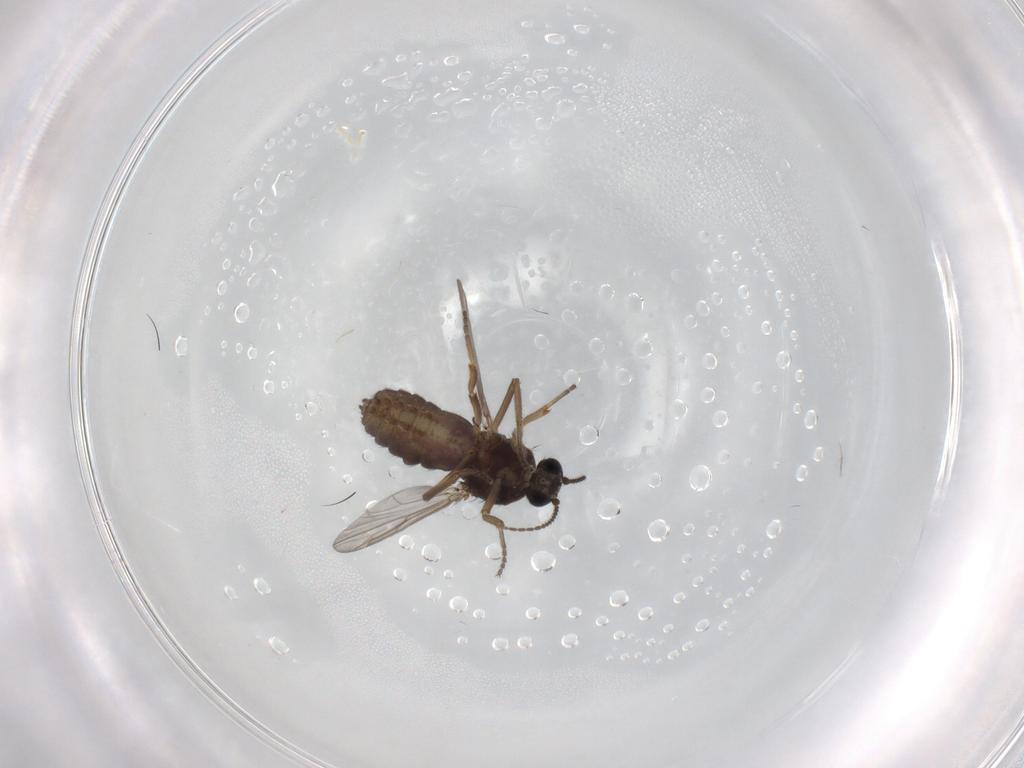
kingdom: Animalia
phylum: Arthropoda
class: Insecta
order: Diptera
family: Ceratopogonidae
